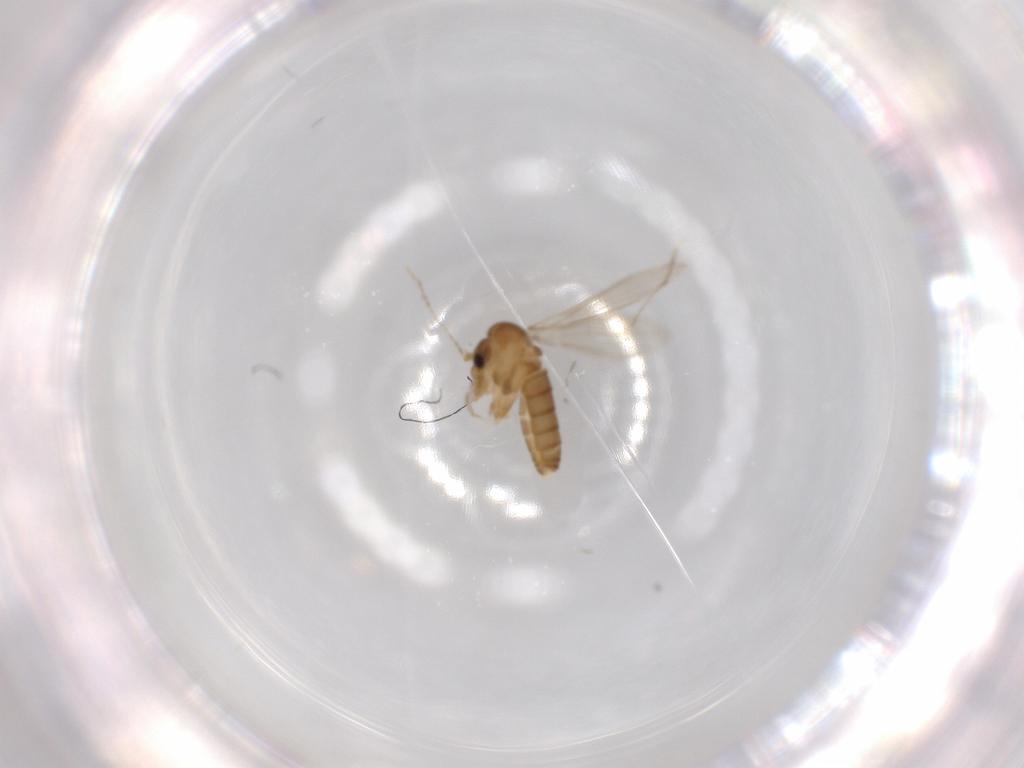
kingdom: Animalia
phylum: Arthropoda
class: Insecta
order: Diptera
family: Psychodidae
